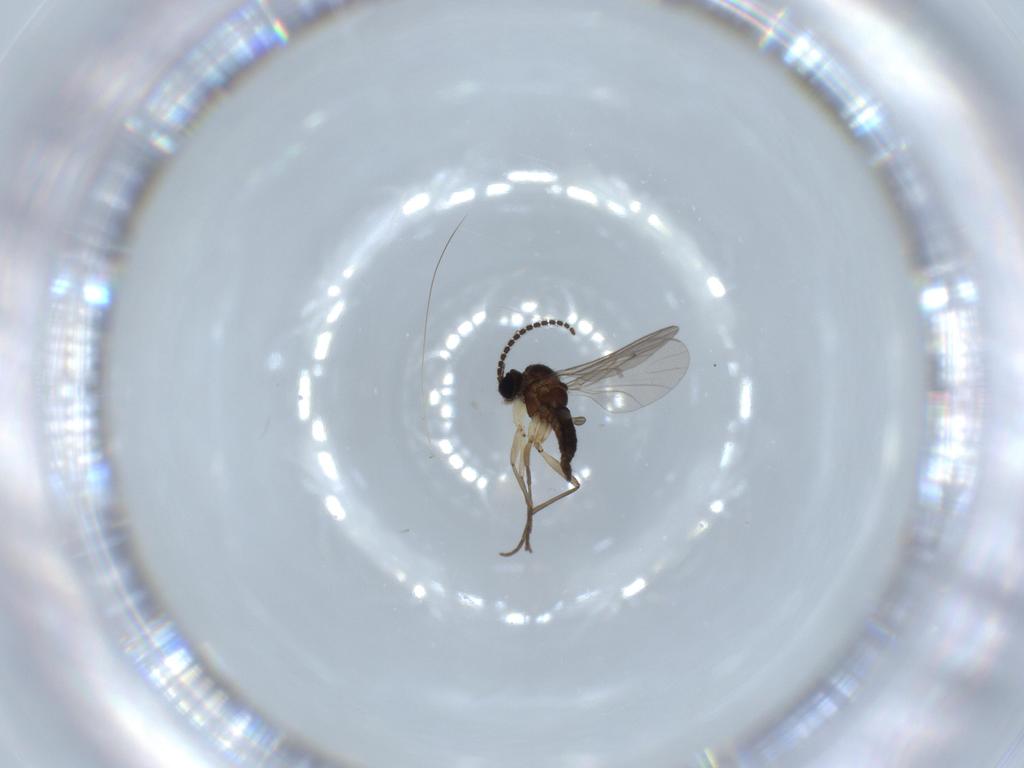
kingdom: Animalia
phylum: Arthropoda
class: Insecta
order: Diptera
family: Sciaridae
